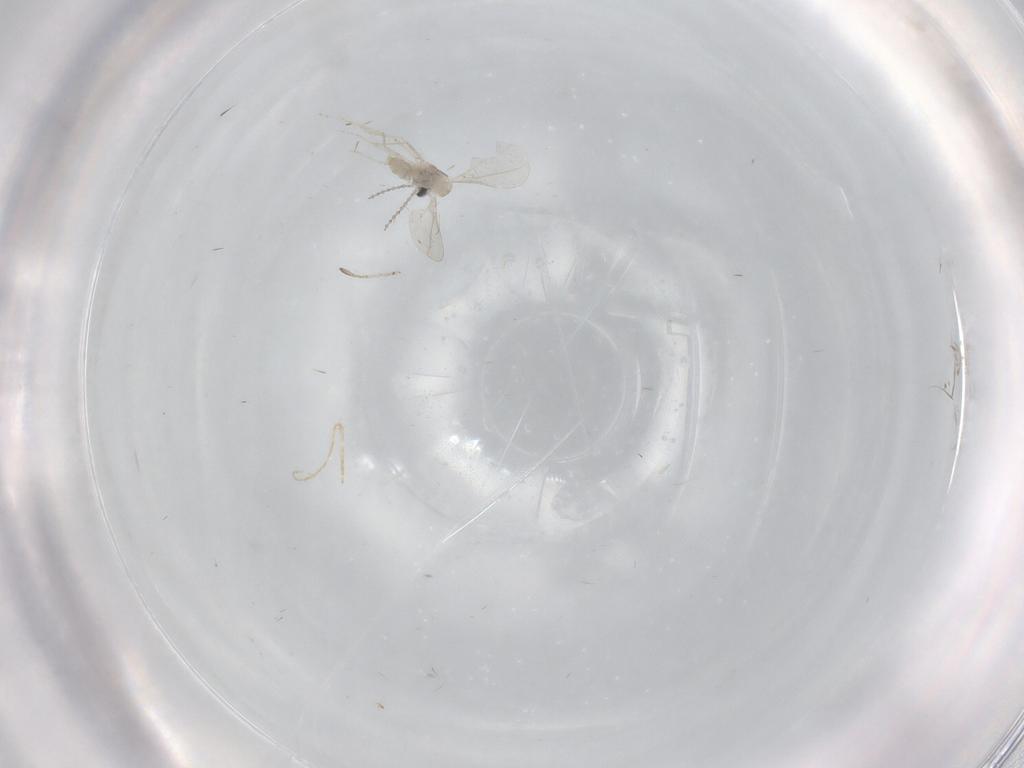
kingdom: Animalia
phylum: Arthropoda
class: Insecta
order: Diptera
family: Cecidomyiidae
